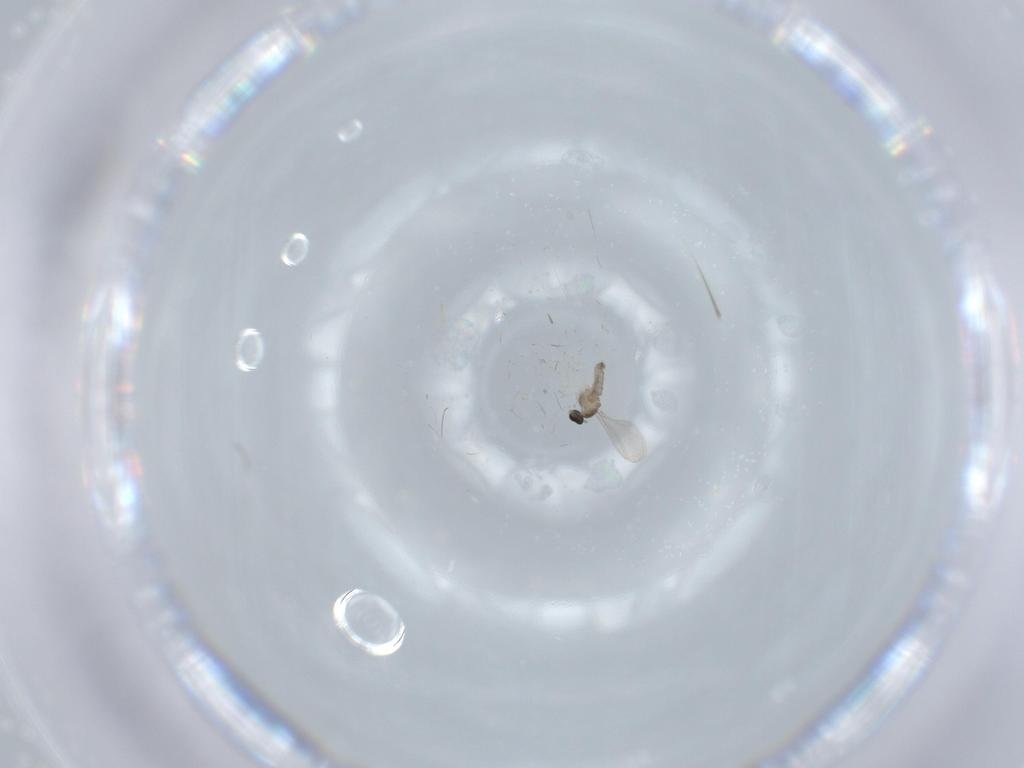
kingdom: Animalia
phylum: Arthropoda
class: Insecta
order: Diptera
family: Cecidomyiidae
